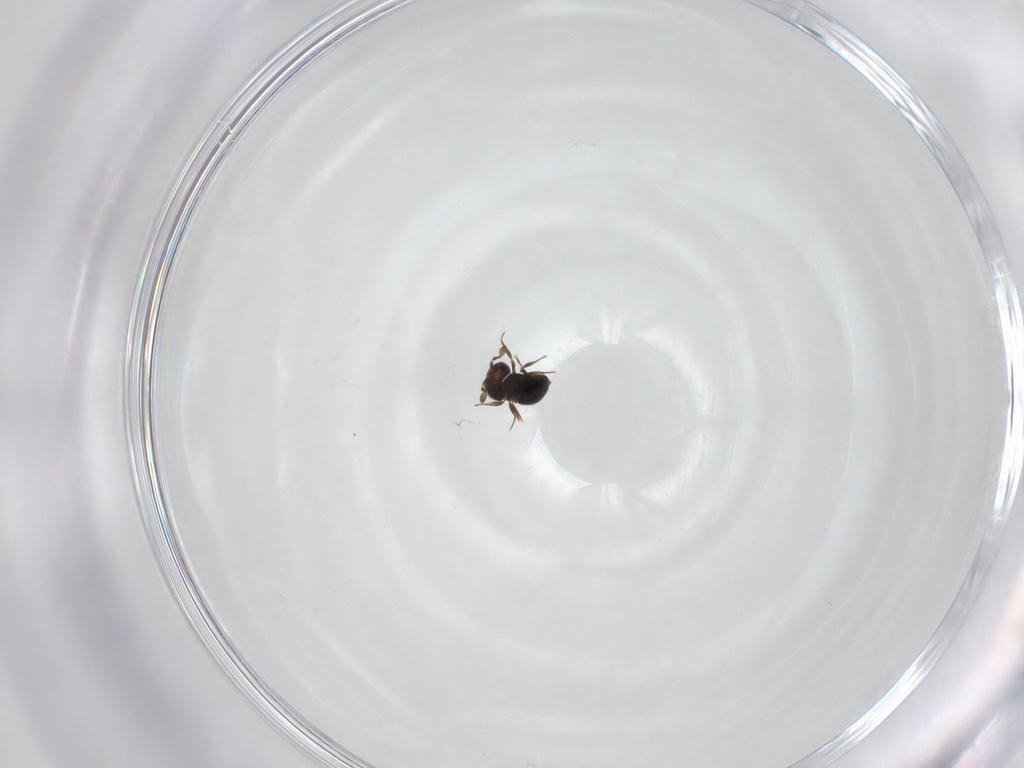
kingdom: Animalia
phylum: Arthropoda
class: Insecta
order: Hymenoptera
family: Scelionidae
